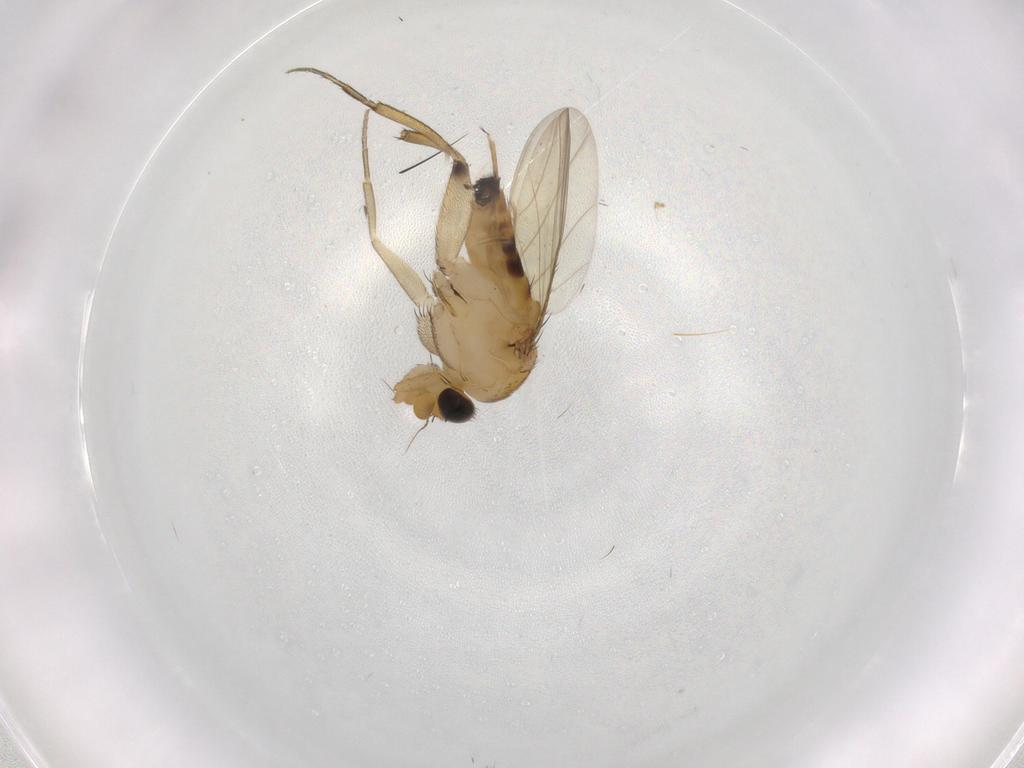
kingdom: Animalia
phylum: Arthropoda
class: Insecta
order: Diptera
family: Phoridae
